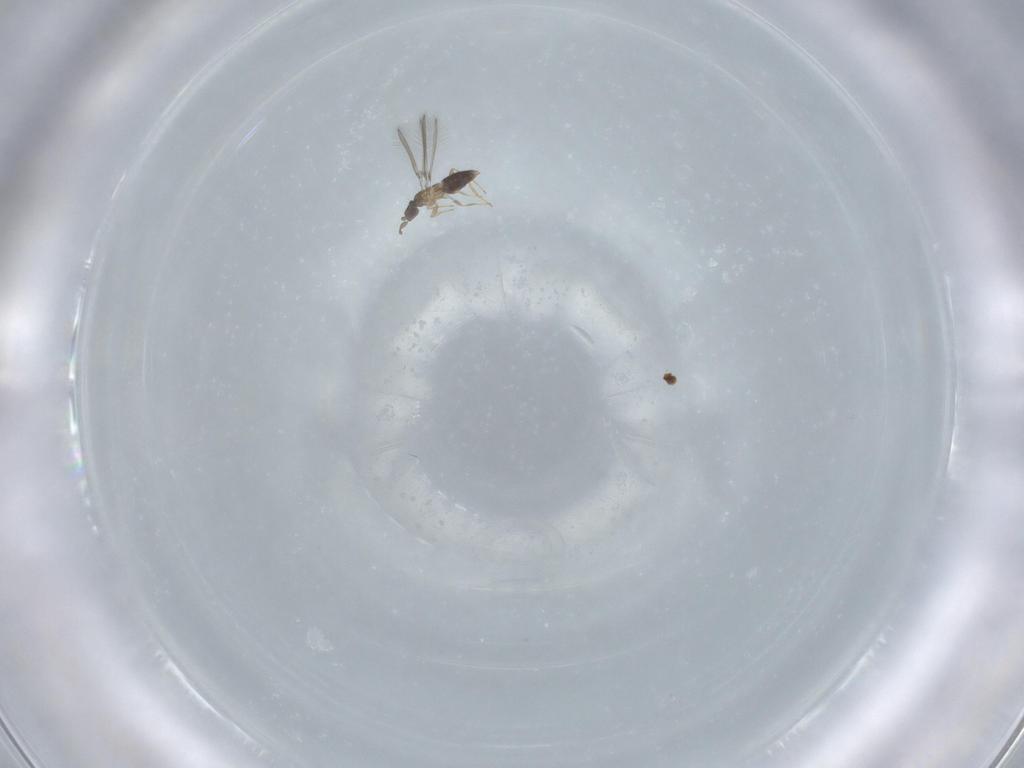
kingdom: Animalia
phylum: Arthropoda
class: Insecta
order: Hymenoptera
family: Mymaridae
